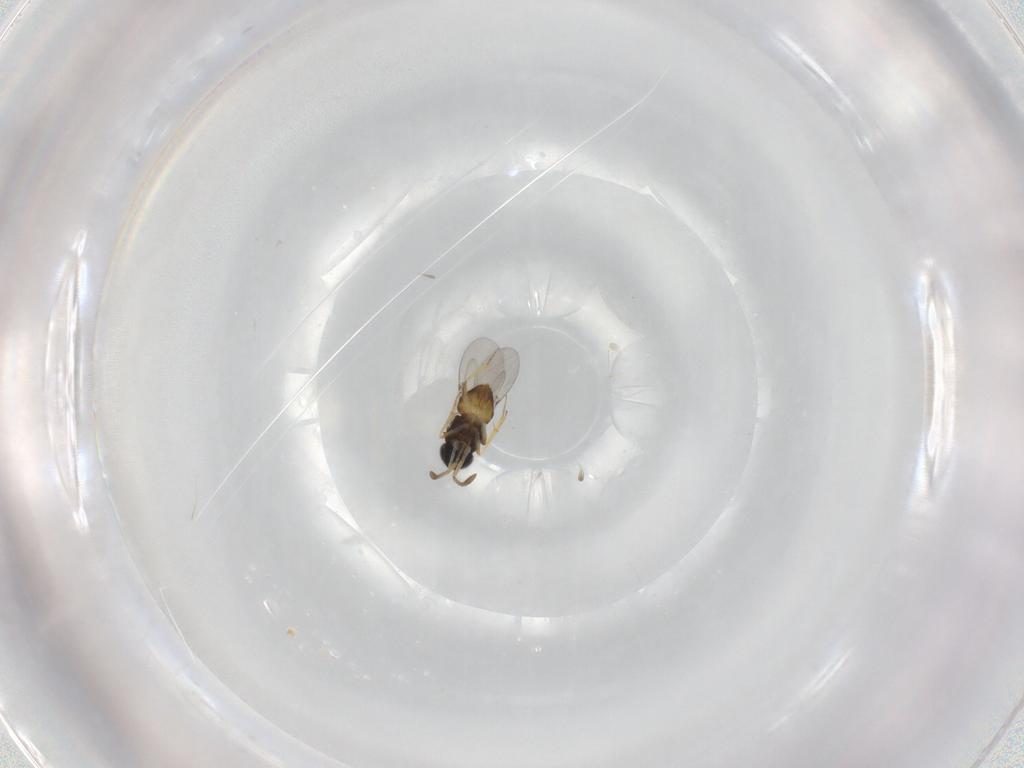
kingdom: Animalia
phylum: Arthropoda
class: Insecta
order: Hymenoptera
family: Encyrtidae
